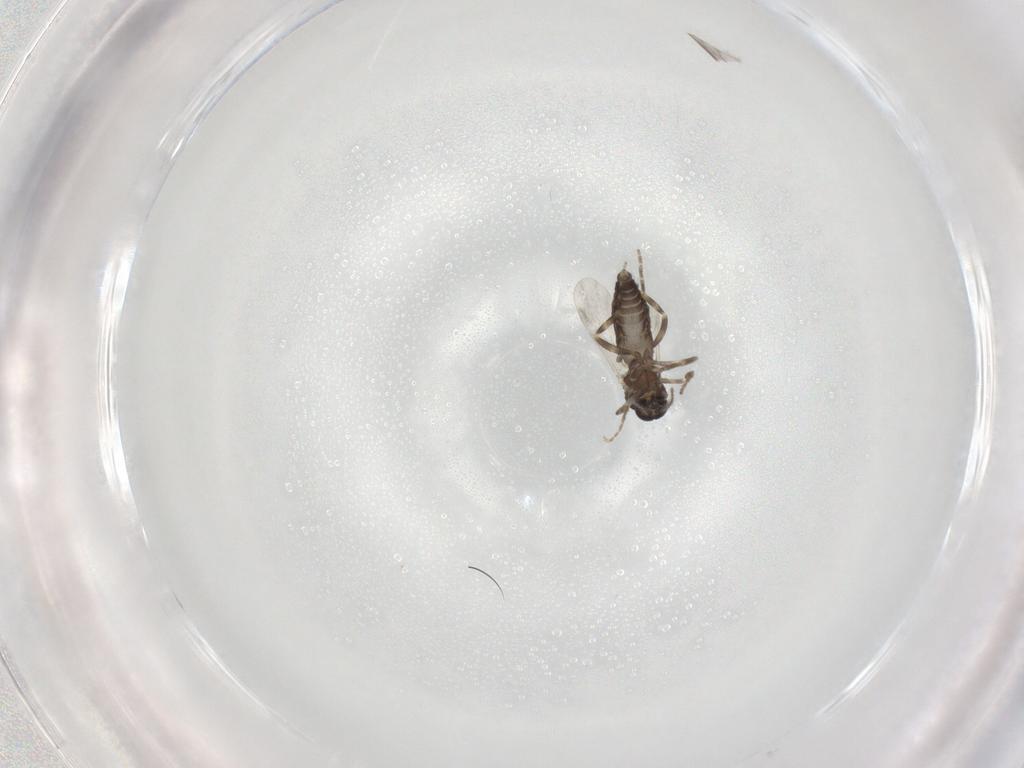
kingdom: Animalia
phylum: Arthropoda
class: Insecta
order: Diptera
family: Ceratopogonidae
